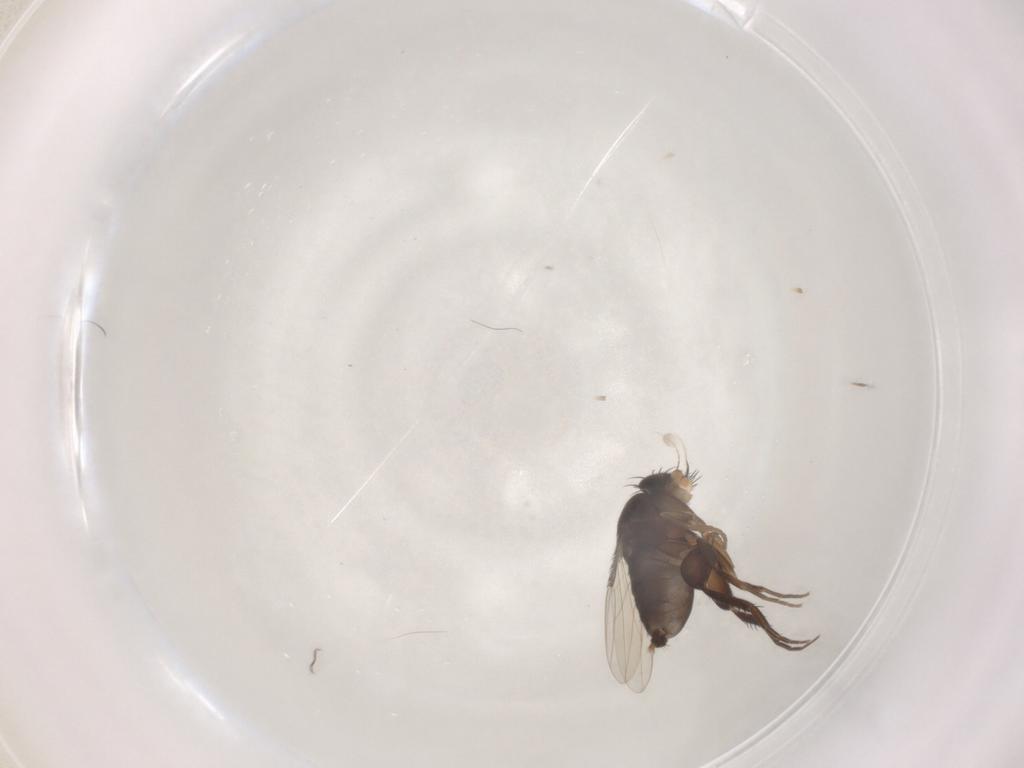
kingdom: Animalia
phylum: Arthropoda
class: Insecta
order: Diptera
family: Phoridae
